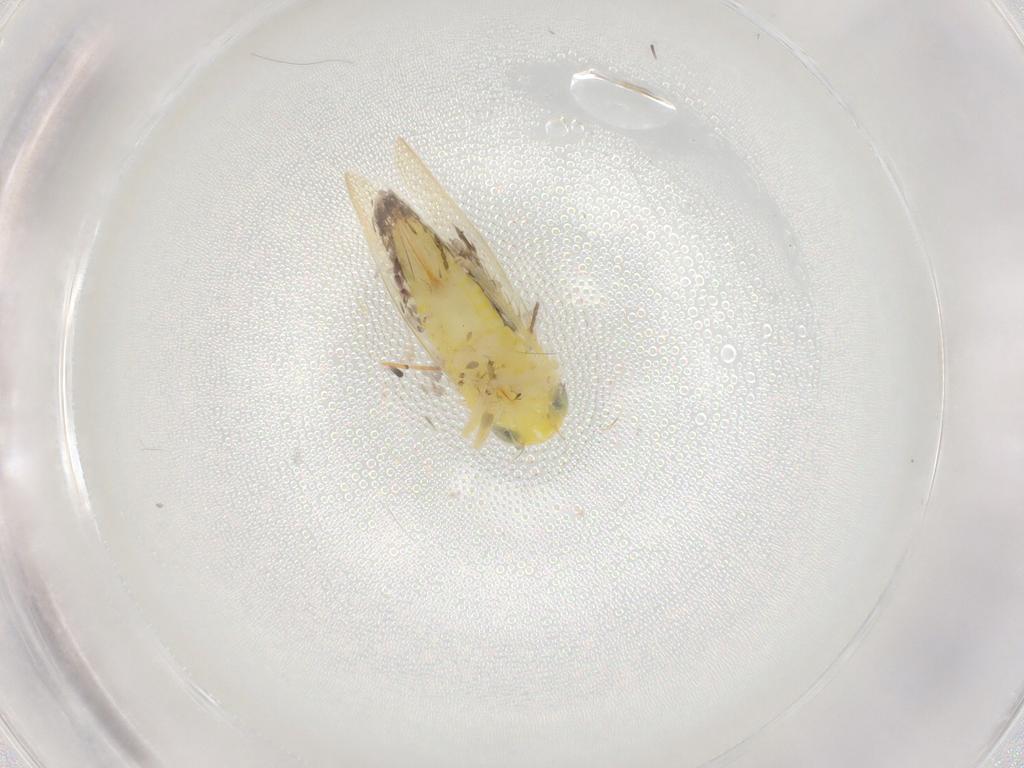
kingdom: Animalia
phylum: Arthropoda
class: Insecta
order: Hemiptera
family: Cicadellidae
